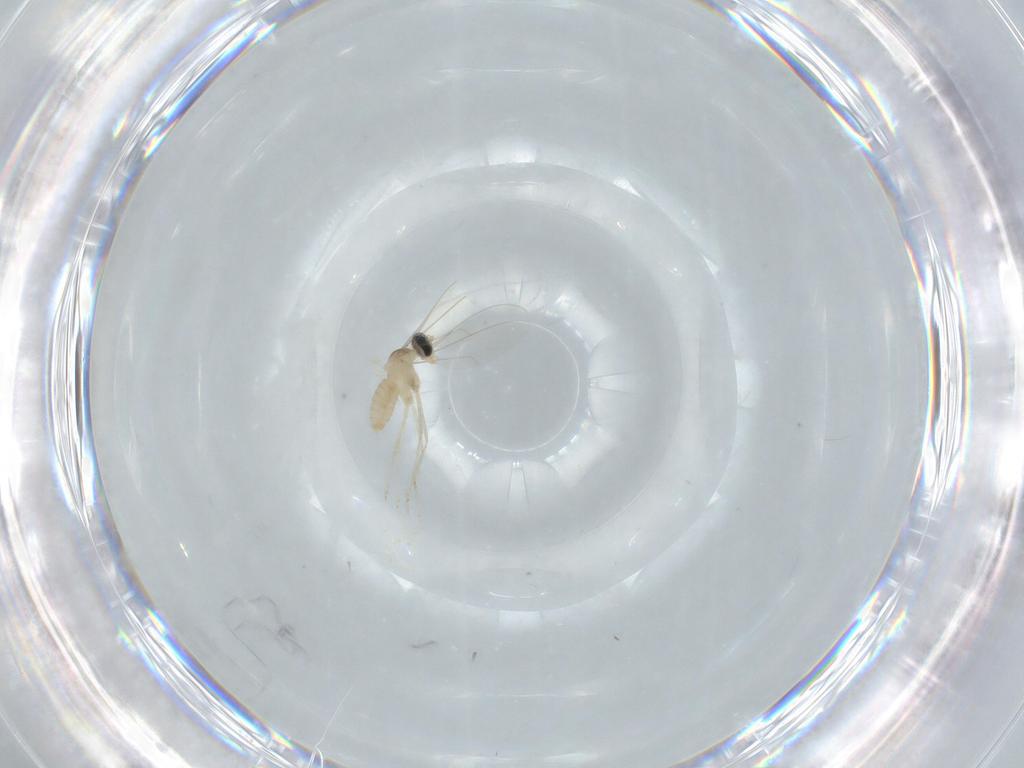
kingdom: Animalia
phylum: Arthropoda
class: Insecta
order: Diptera
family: Cecidomyiidae
